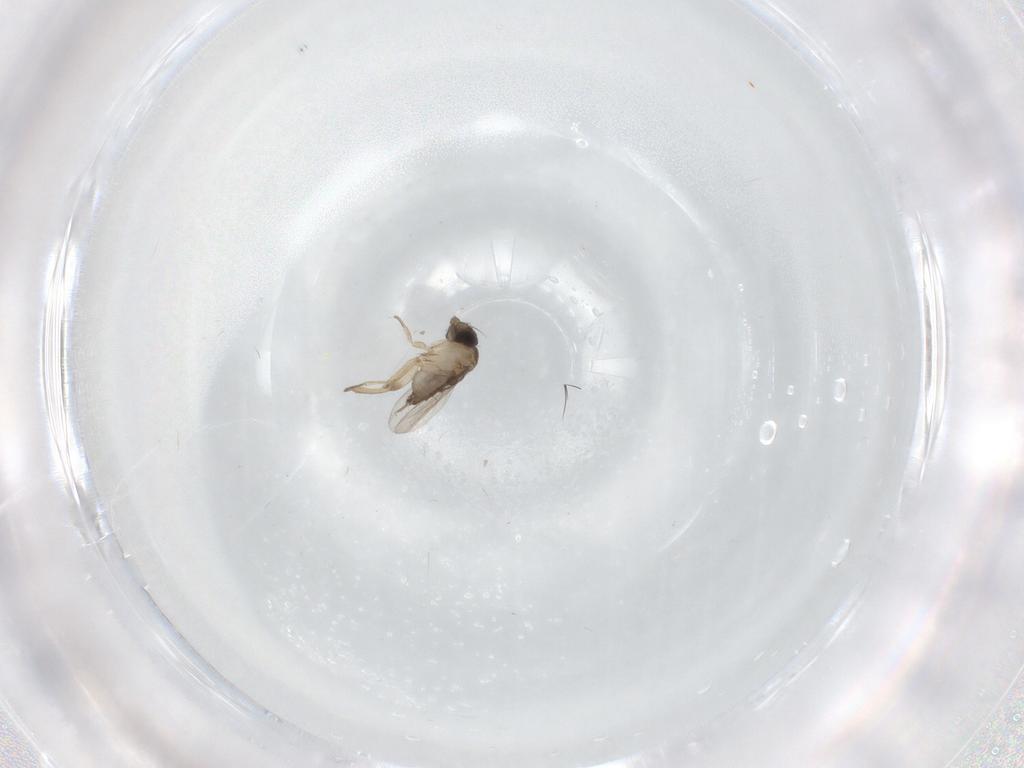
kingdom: Animalia
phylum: Arthropoda
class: Insecta
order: Diptera
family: Phoridae
